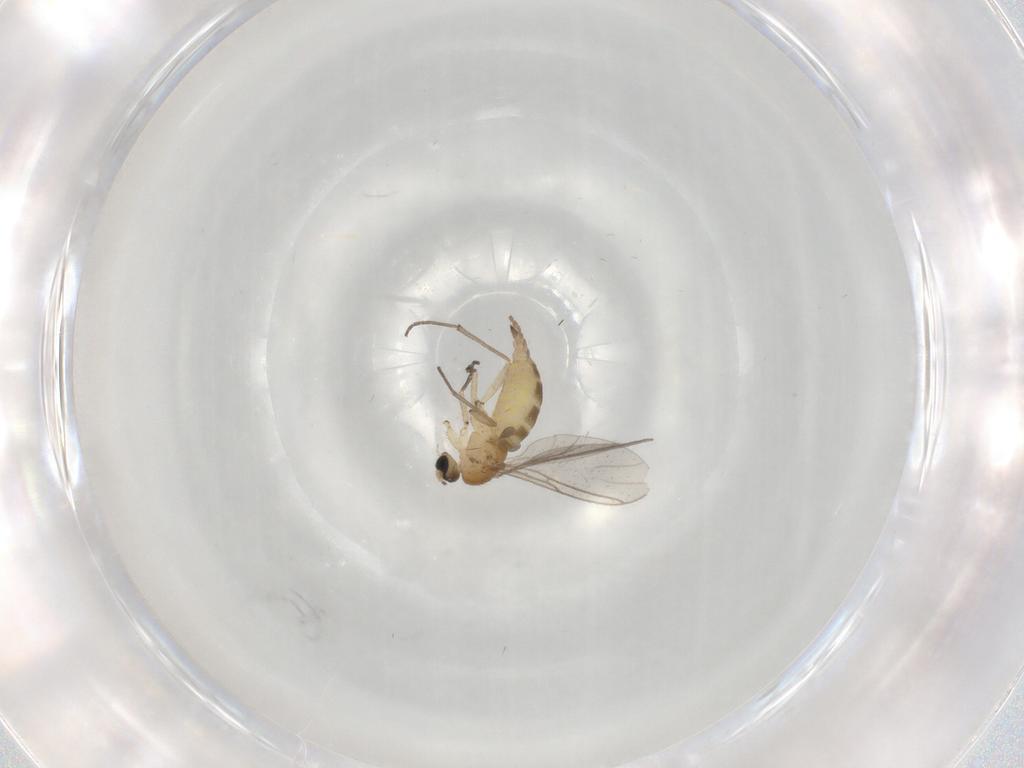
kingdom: Animalia
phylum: Arthropoda
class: Insecta
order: Diptera
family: Sciaridae
